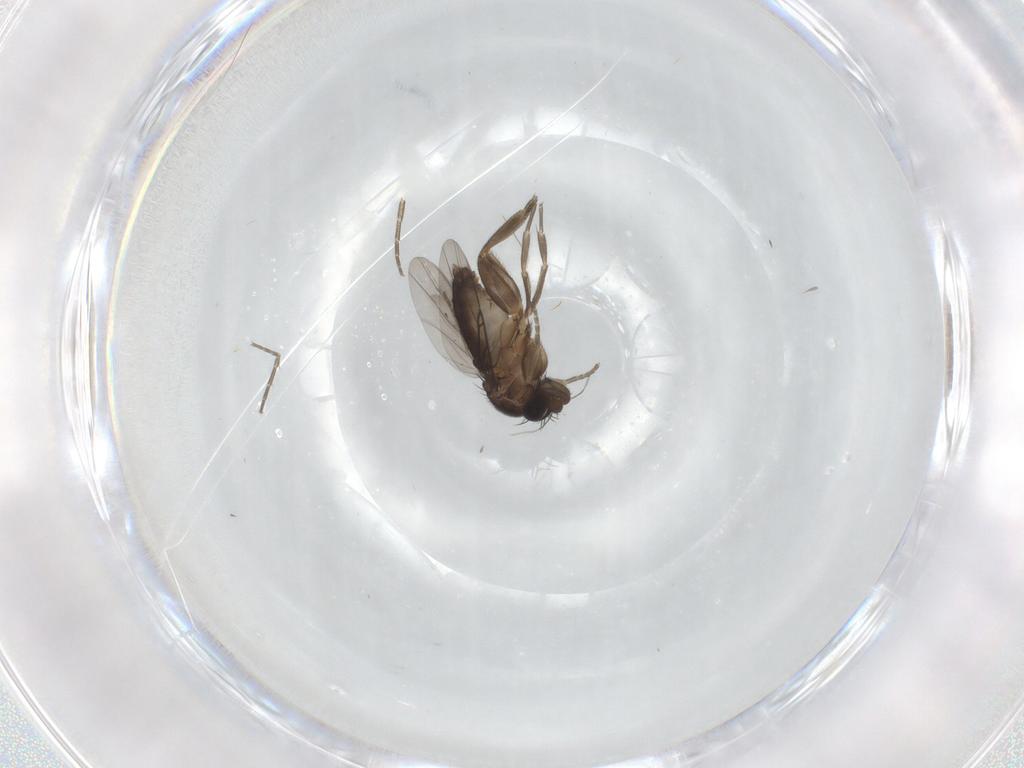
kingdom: Animalia
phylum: Arthropoda
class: Insecta
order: Diptera
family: Phoridae
